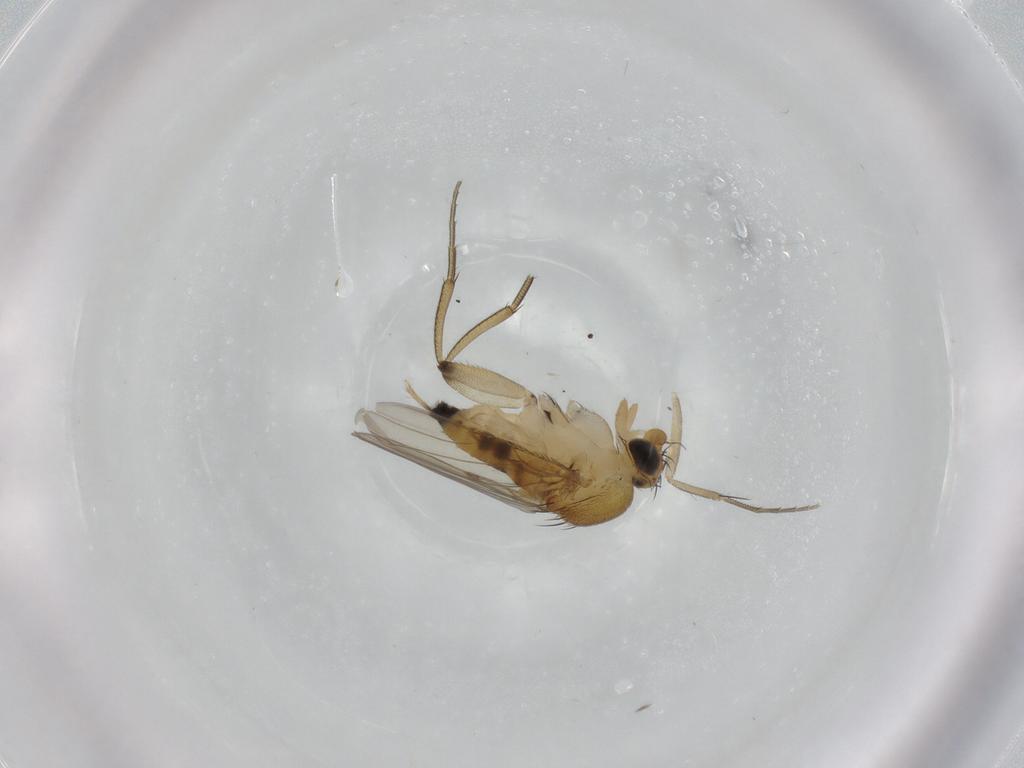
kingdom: Animalia
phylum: Arthropoda
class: Insecta
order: Diptera
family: Phoridae
